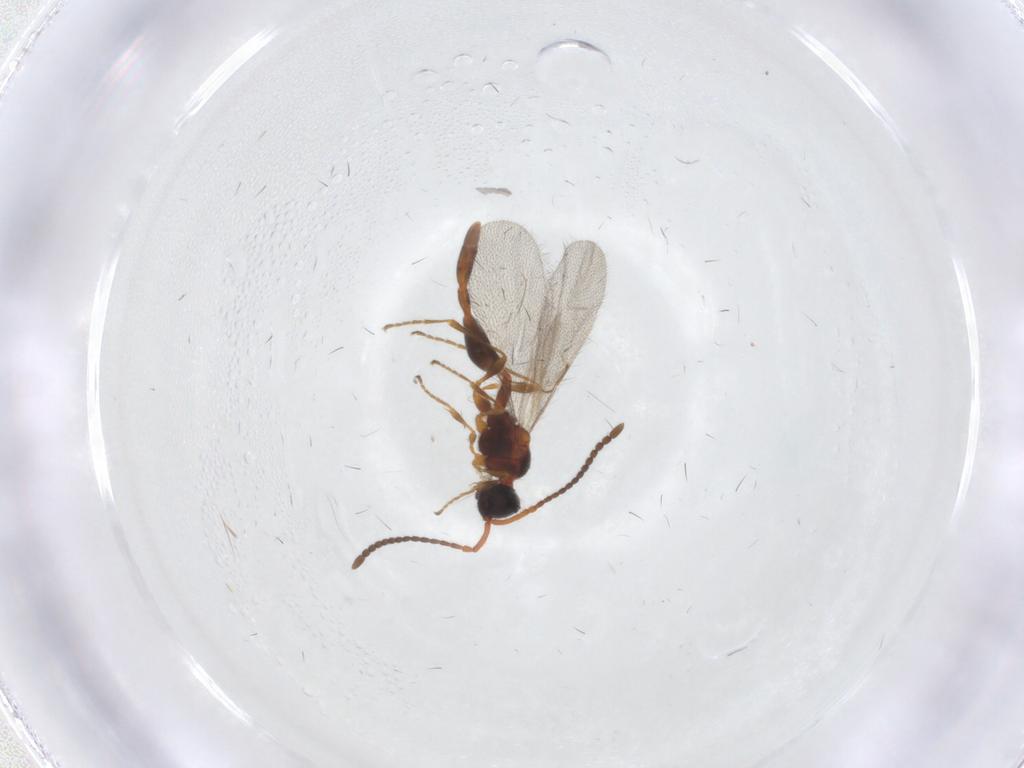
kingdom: Animalia
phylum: Arthropoda
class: Insecta
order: Hymenoptera
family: Diapriidae
